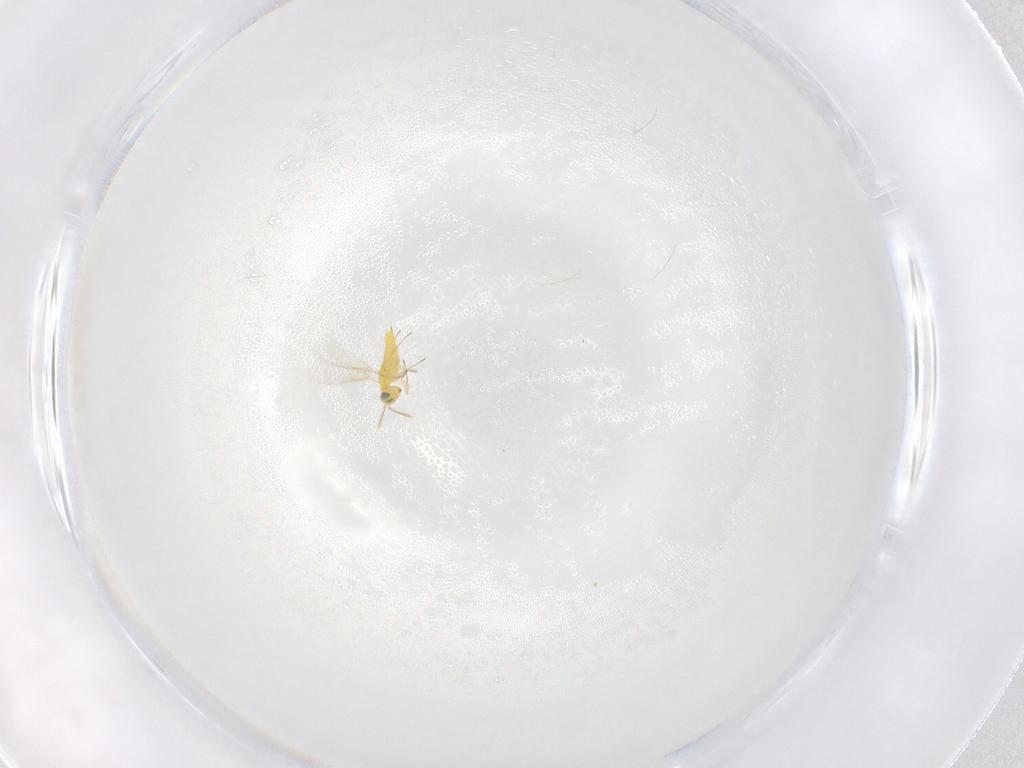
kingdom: Animalia
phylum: Arthropoda
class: Insecta
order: Hymenoptera
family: Aphelinidae
